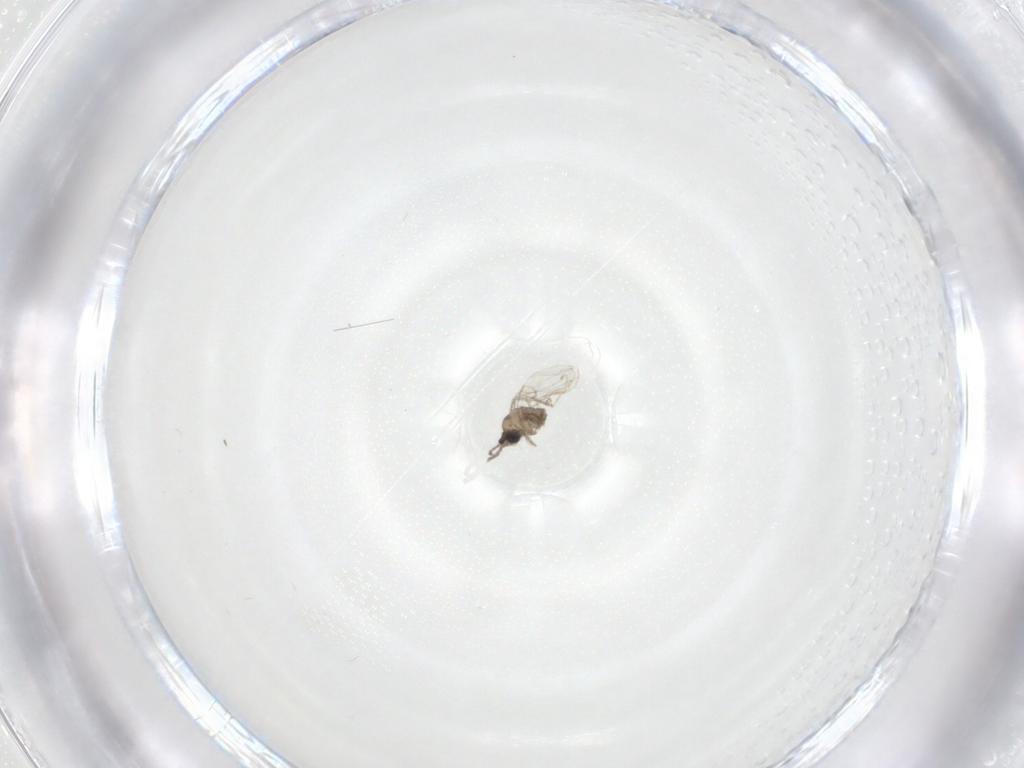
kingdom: Animalia
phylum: Arthropoda
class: Insecta
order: Diptera
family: Cecidomyiidae
